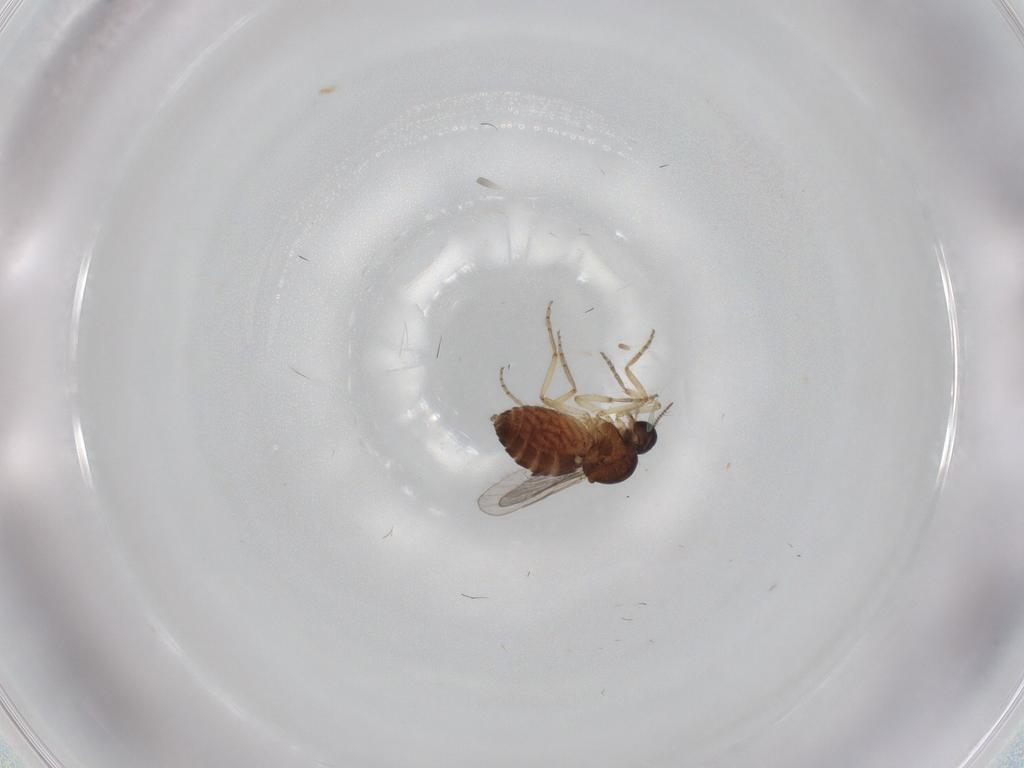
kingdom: Animalia
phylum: Arthropoda
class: Insecta
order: Diptera
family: Ceratopogonidae
